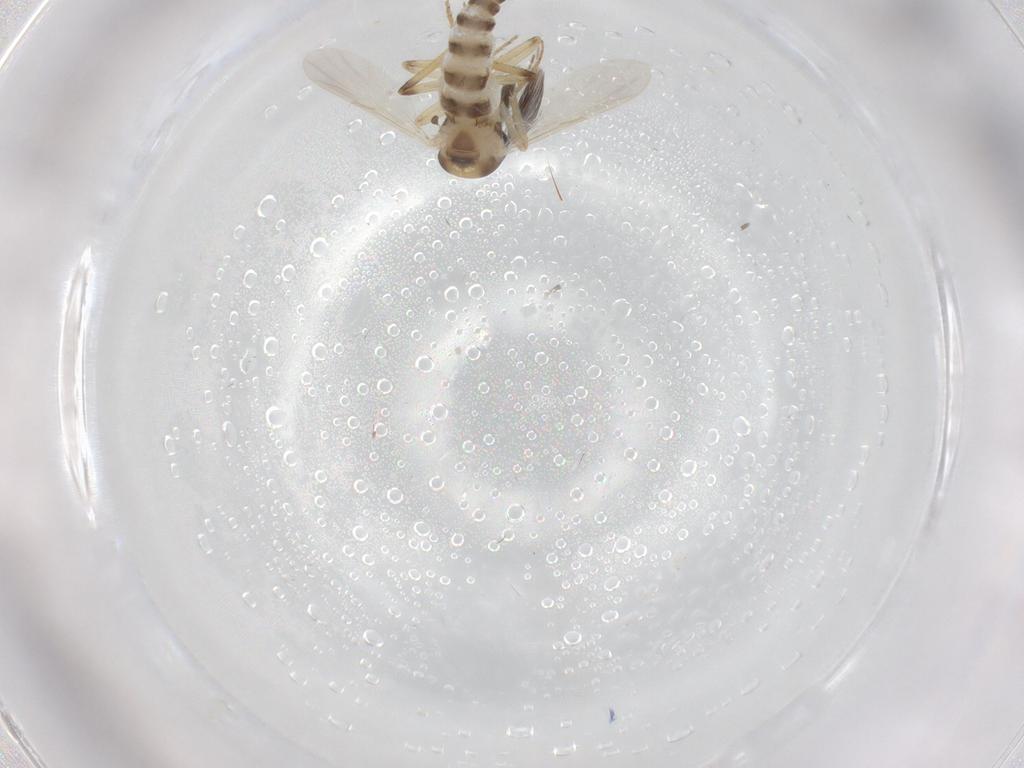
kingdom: Animalia
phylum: Arthropoda
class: Insecta
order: Diptera
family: Ceratopogonidae
